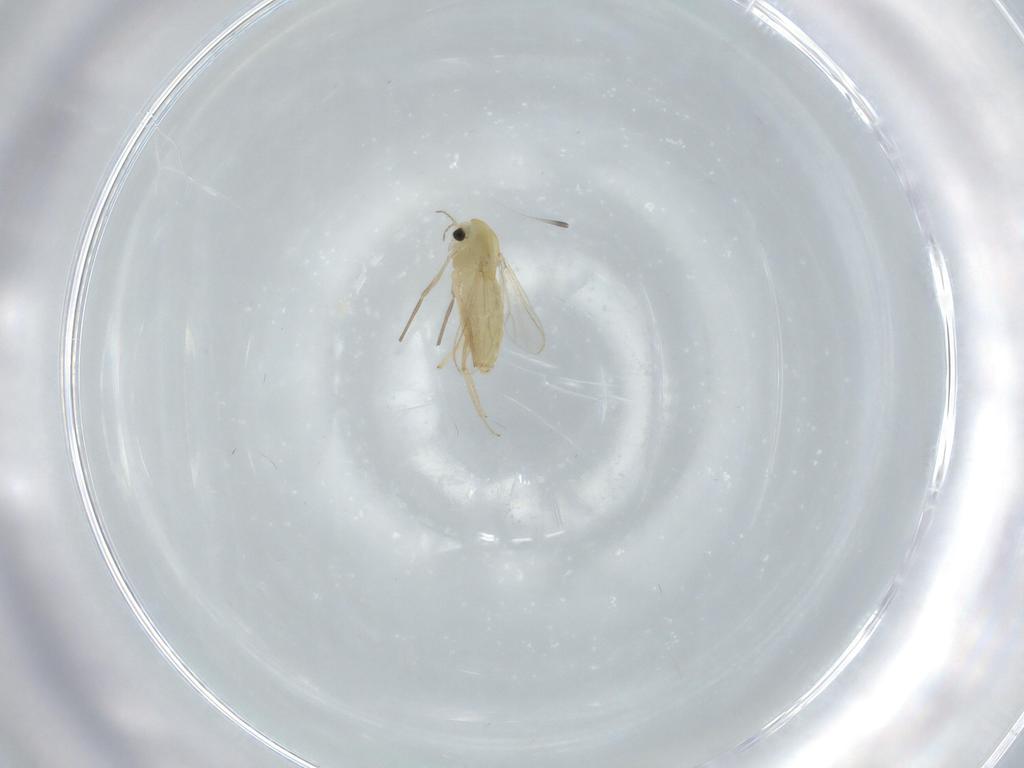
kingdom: Animalia
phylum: Arthropoda
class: Insecta
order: Diptera
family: Chironomidae
